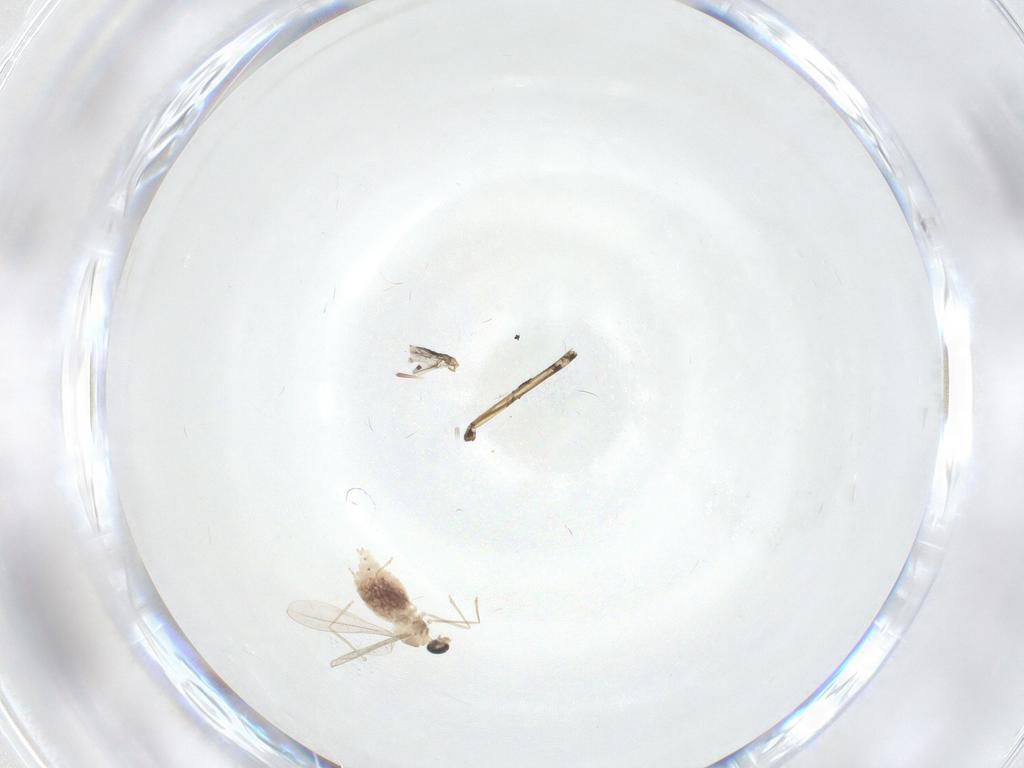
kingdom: Animalia
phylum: Arthropoda
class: Insecta
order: Diptera
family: Cecidomyiidae
